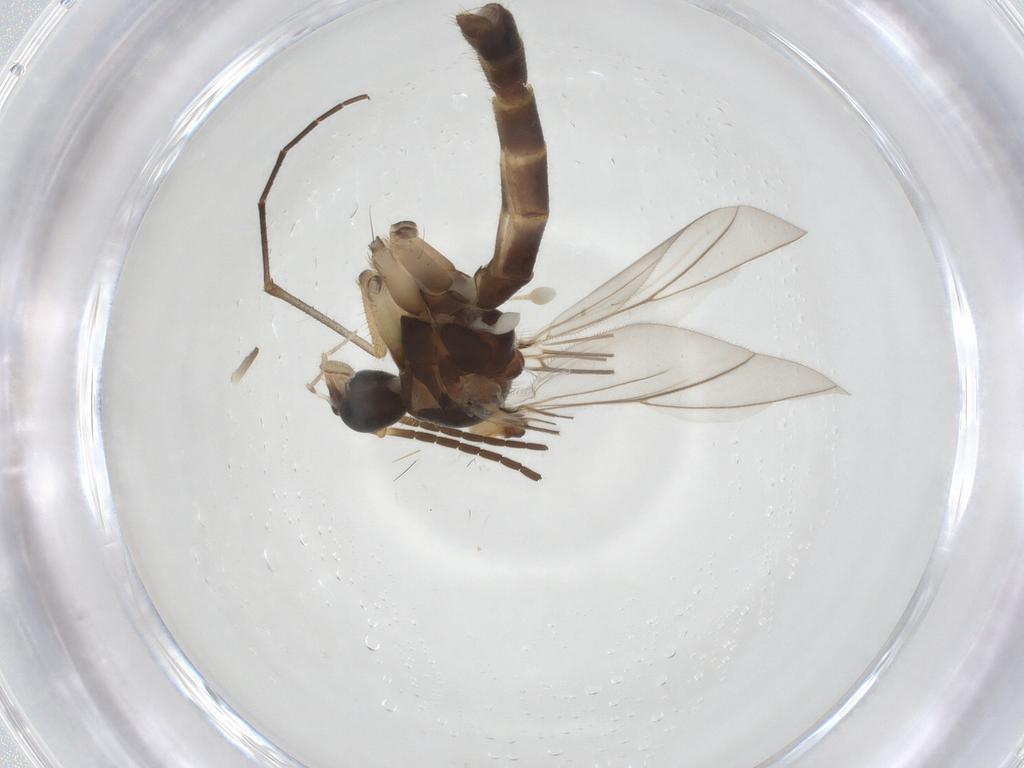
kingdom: Animalia
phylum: Arthropoda
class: Insecta
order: Diptera
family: Mycetophilidae
